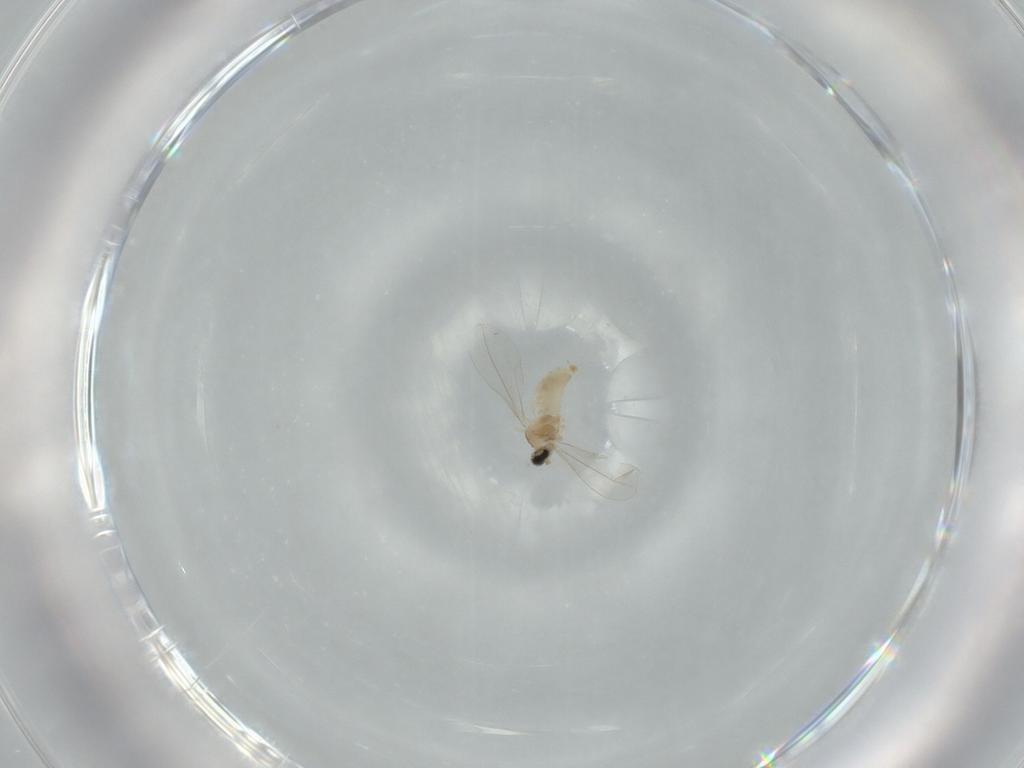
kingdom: Animalia
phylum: Arthropoda
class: Insecta
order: Diptera
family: Cecidomyiidae
